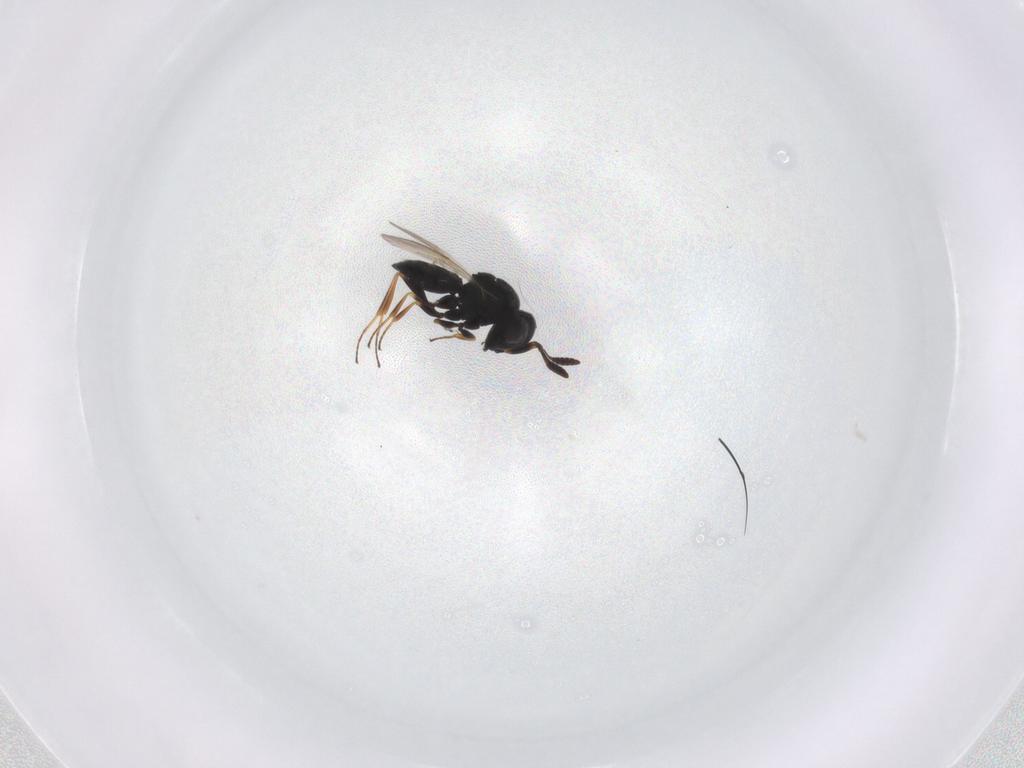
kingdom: Animalia
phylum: Arthropoda
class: Insecta
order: Hymenoptera
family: Scelionidae
